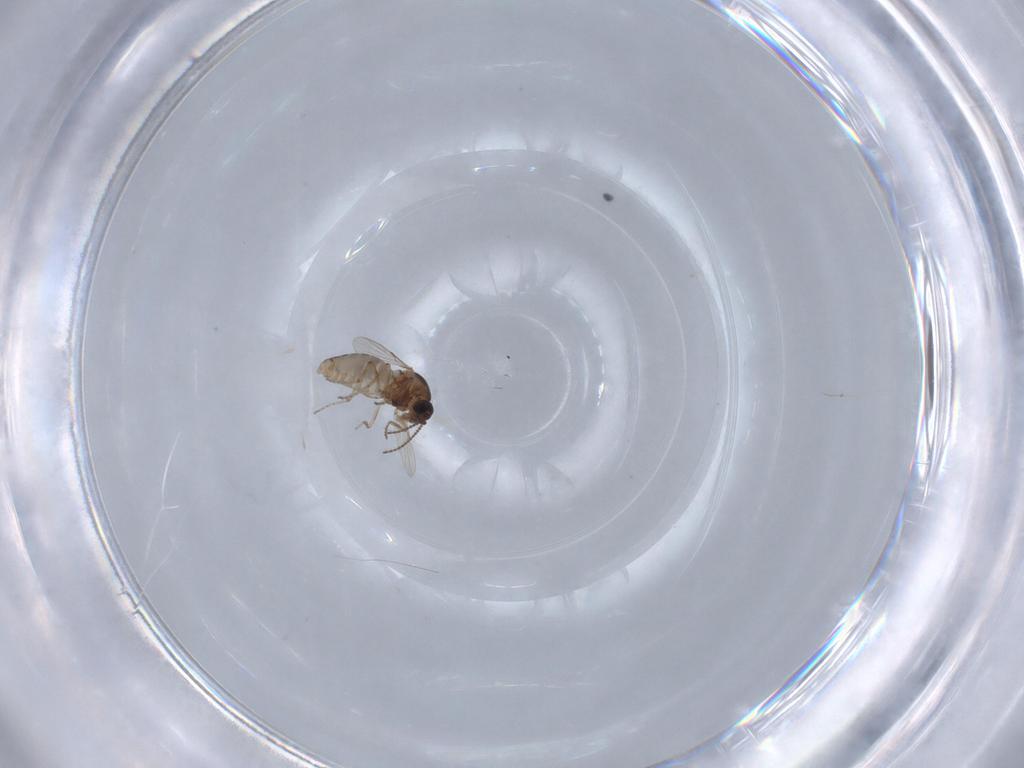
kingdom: Animalia
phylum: Arthropoda
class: Insecta
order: Diptera
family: Ceratopogonidae
